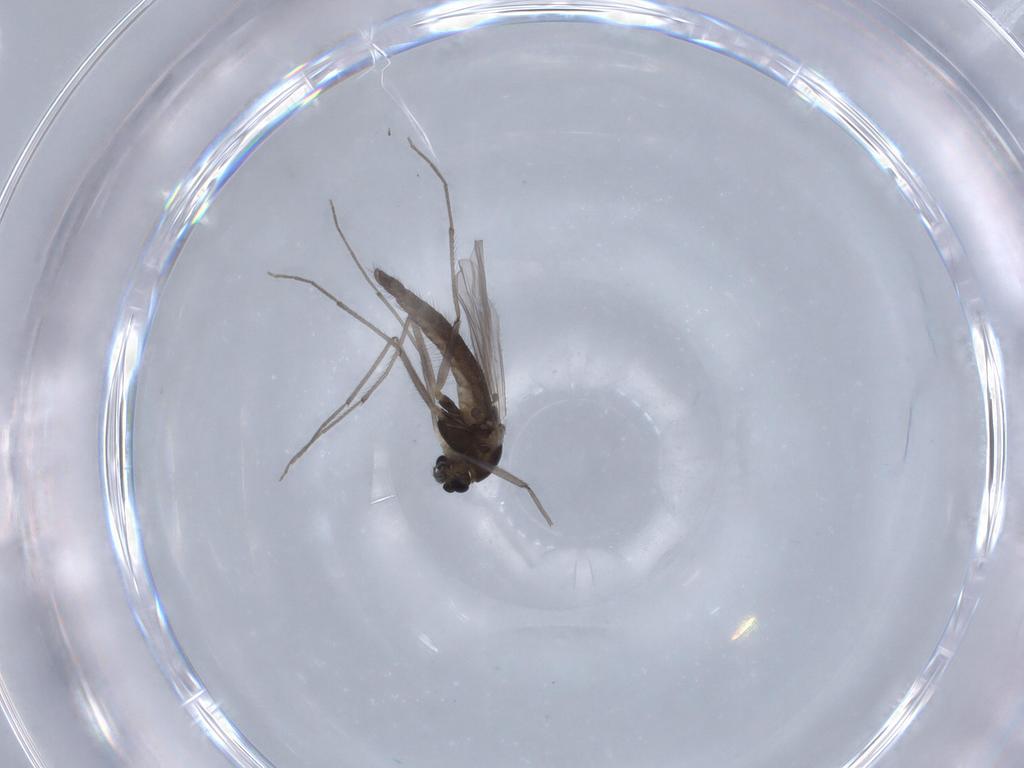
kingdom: Animalia
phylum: Arthropoda
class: Insecta
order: Diptera
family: Chironomidae
